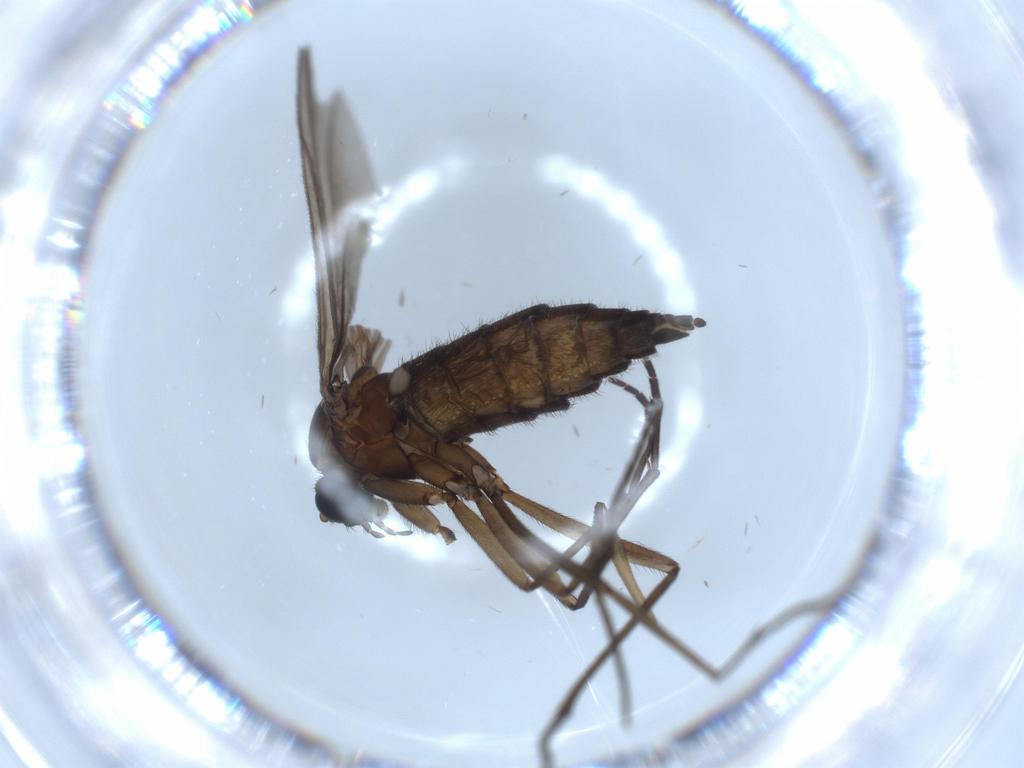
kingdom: Animalia
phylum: Arthropoda
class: Insecta
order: Diptera
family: Sciaridae
